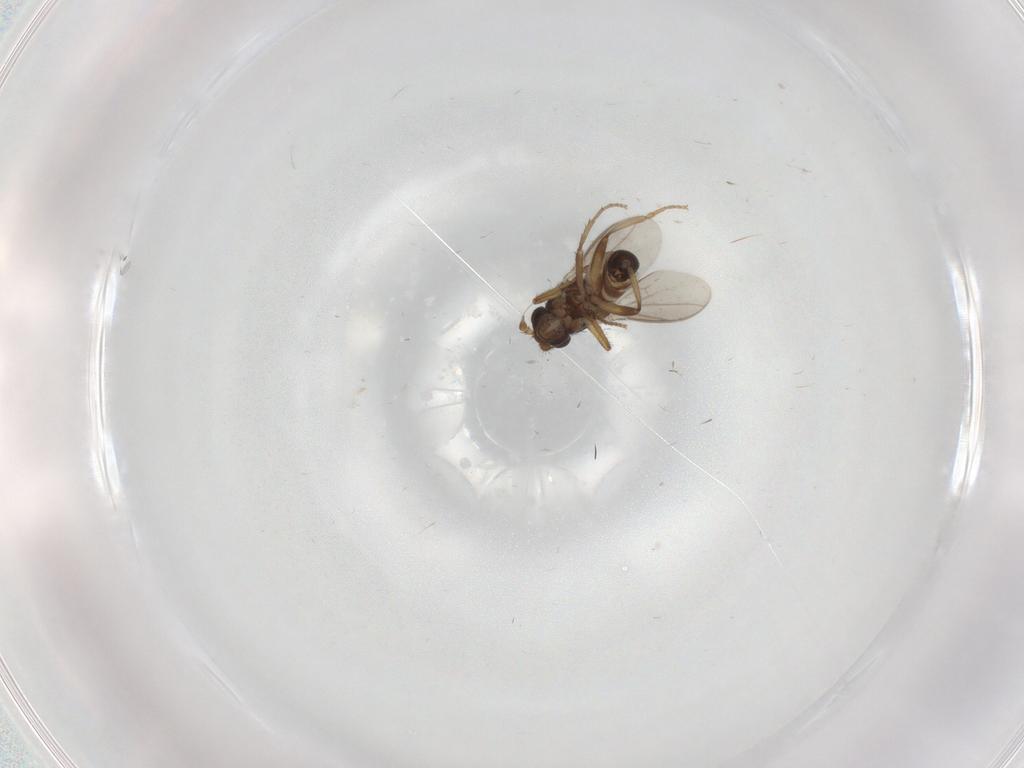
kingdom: Animalia
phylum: Arthropoda
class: Insecta
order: Diptera
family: Sphaeroceridae
